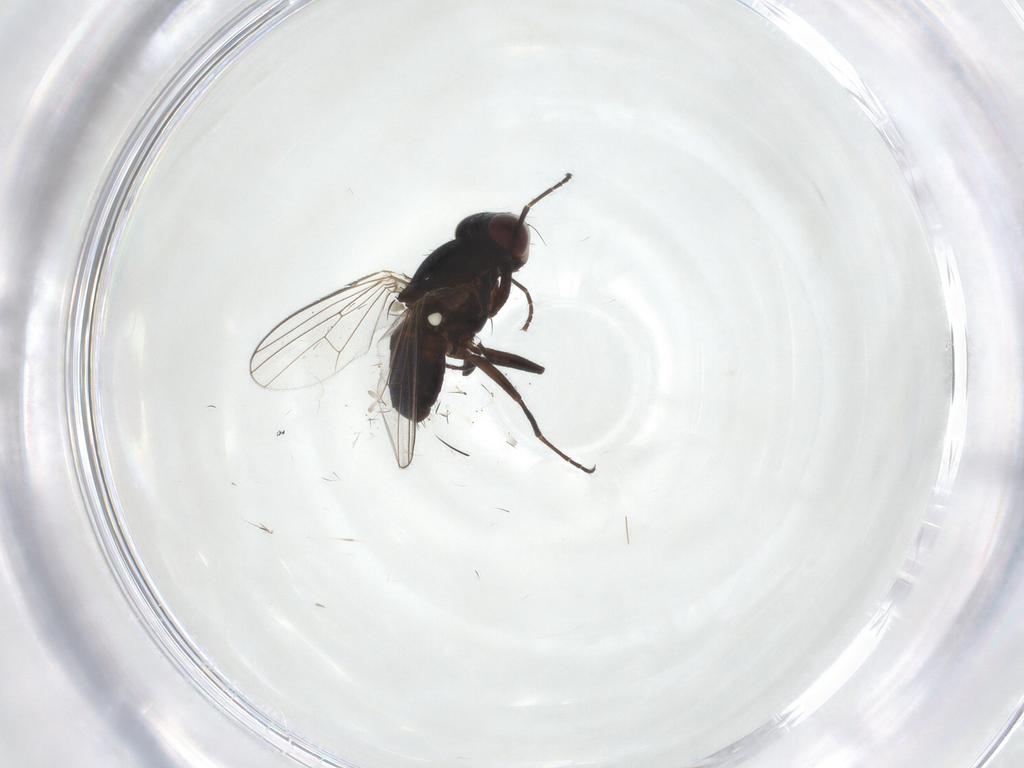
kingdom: Animalia
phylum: Arthropoda
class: Insecta
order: Diptera
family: Carnidae
